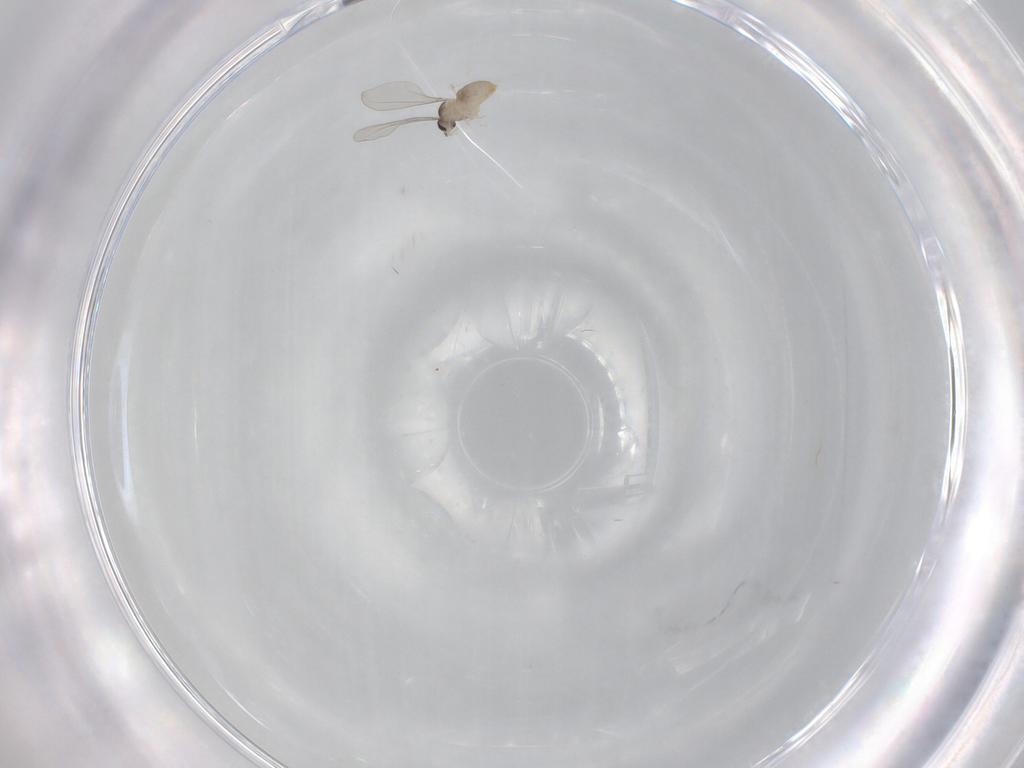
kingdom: Animalia
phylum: Arthropoda
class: Insecta
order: Diptera
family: Cecidomyiidae
